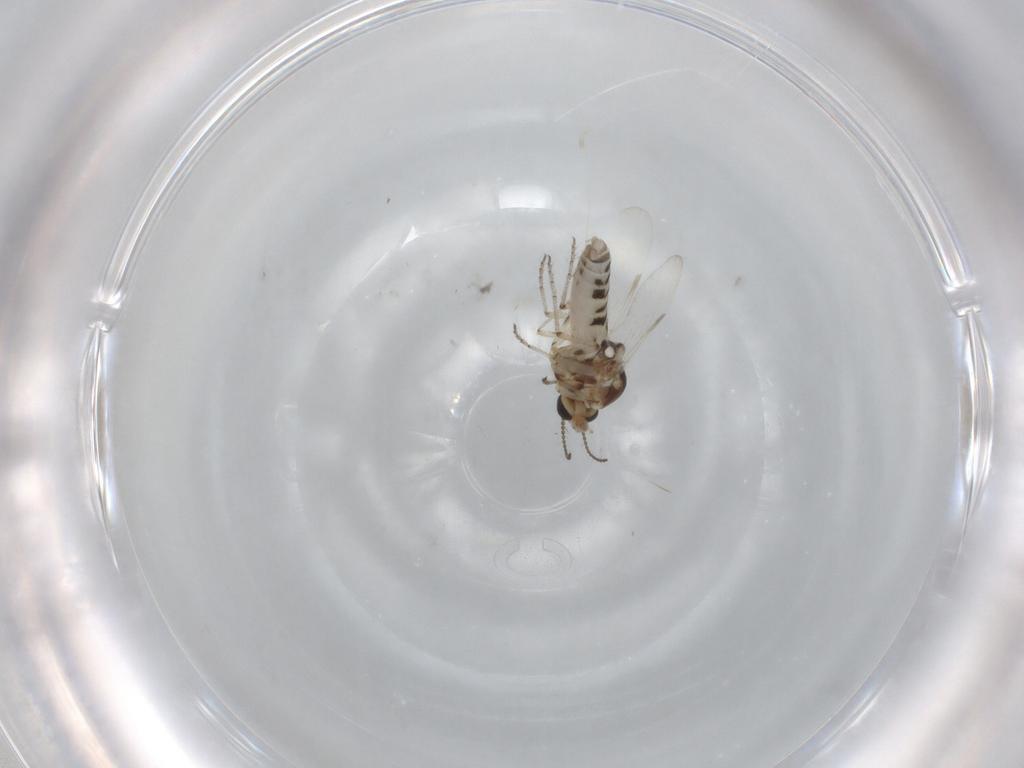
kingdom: Animalia
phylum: Arthropoda
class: Insecta
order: Diptera
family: Ceratopogonidae
